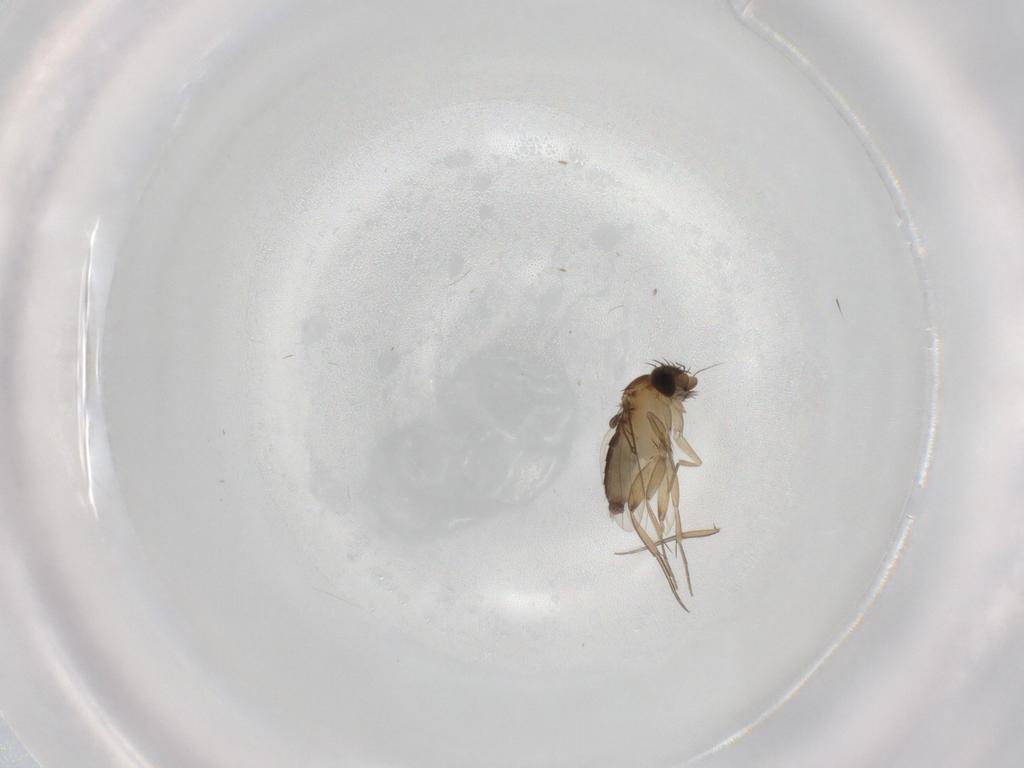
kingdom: Animalia
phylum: Arthropoda
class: Insecta
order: Diptera
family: Phoridae
